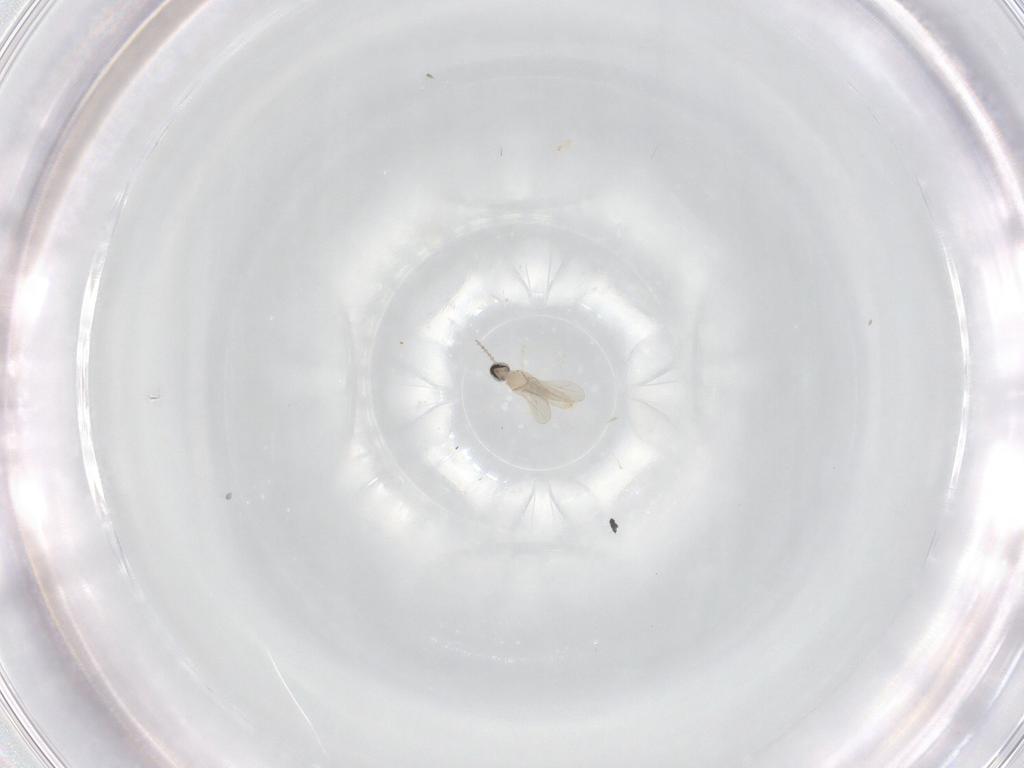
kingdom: Animalia
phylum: Arthropoda
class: Insecta
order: Diptera
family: Cecidomyiidae
